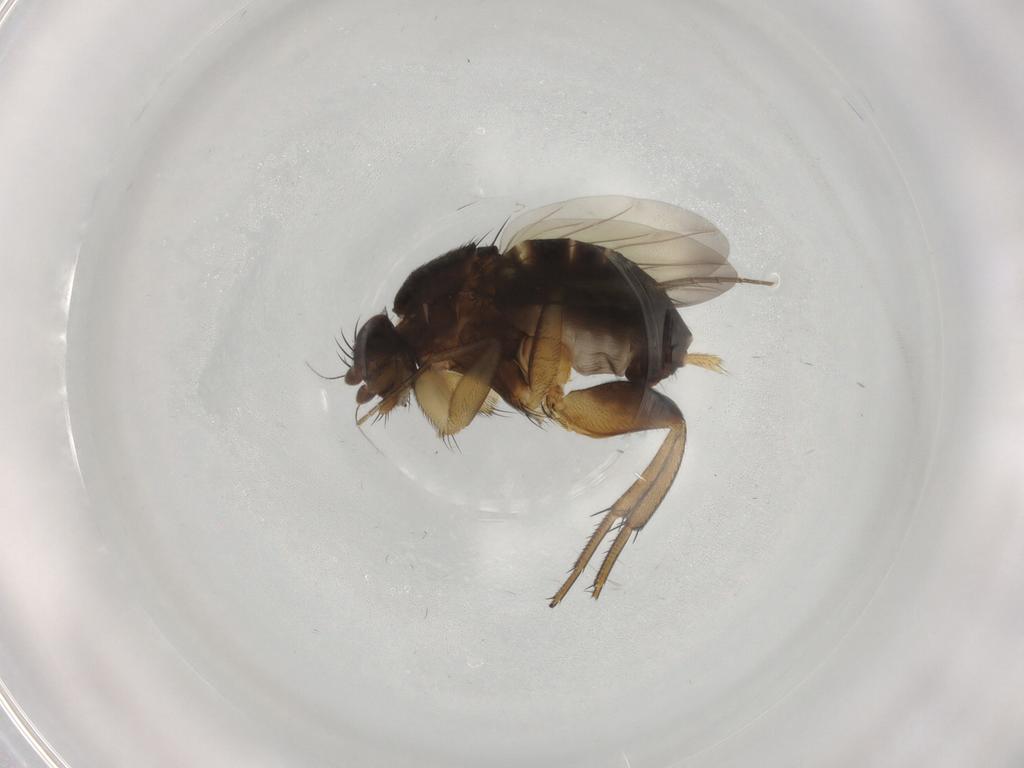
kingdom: Animalia
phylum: Arthropoda
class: Insecta
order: Diptera
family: Phoridae
